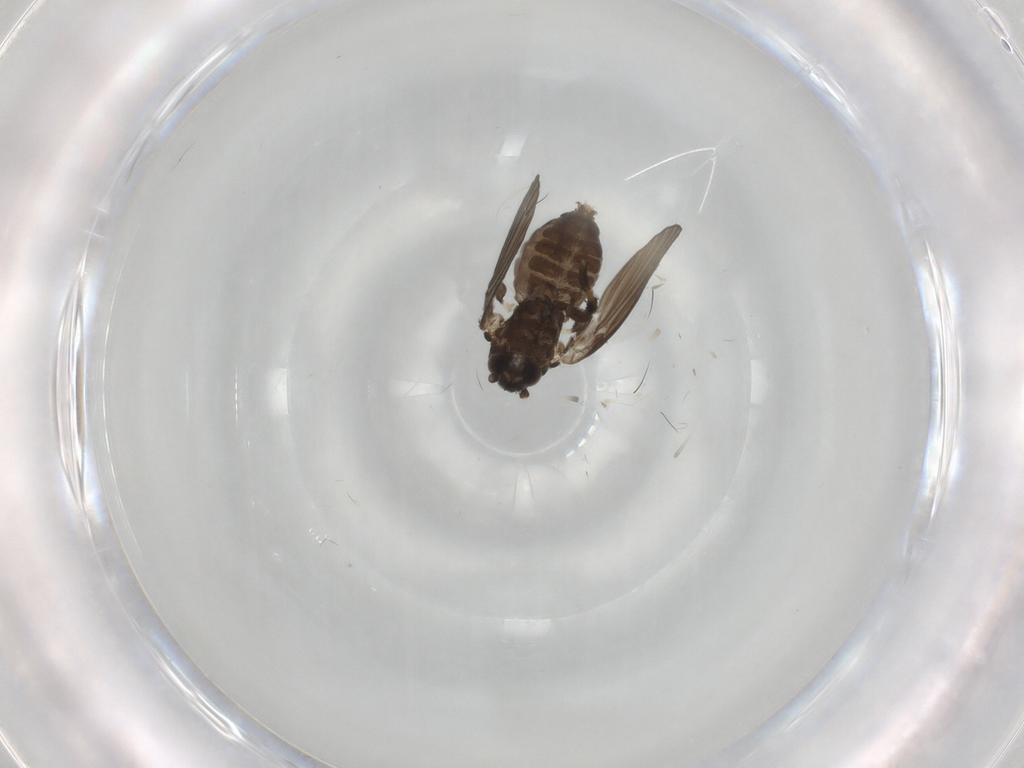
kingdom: Animalia
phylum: Arthropoda
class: Insecta
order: Diptera
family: Psychodidae
